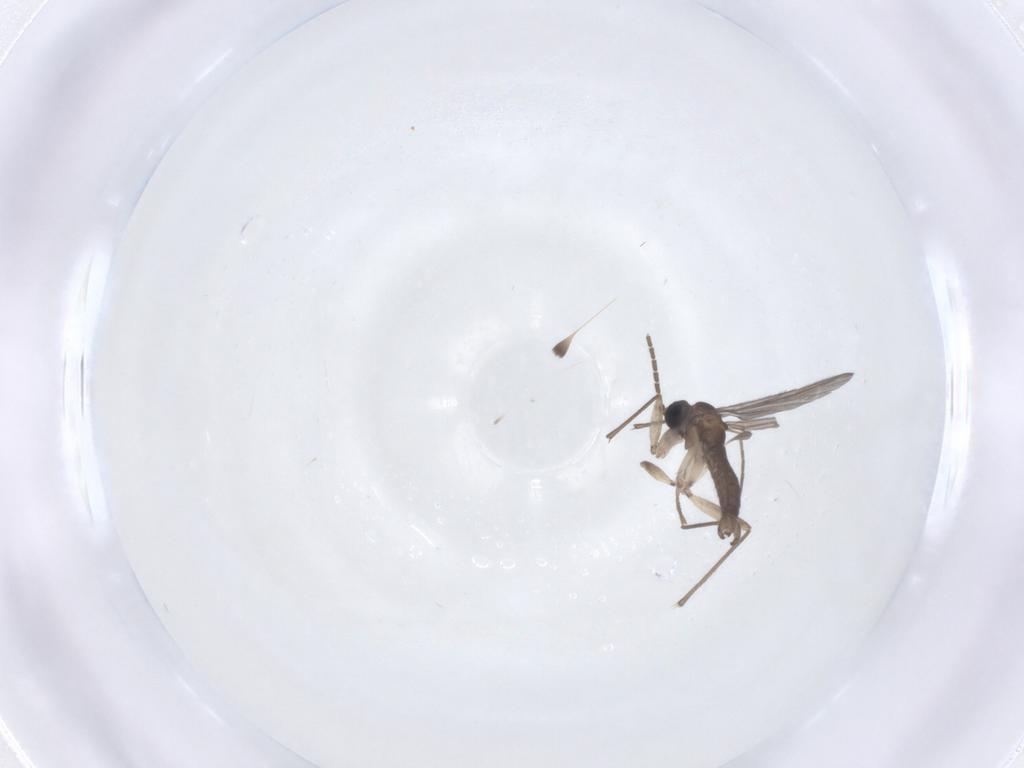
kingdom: Animalia
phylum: Arthropoda
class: Insecta
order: Diptera
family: Sciaridae
